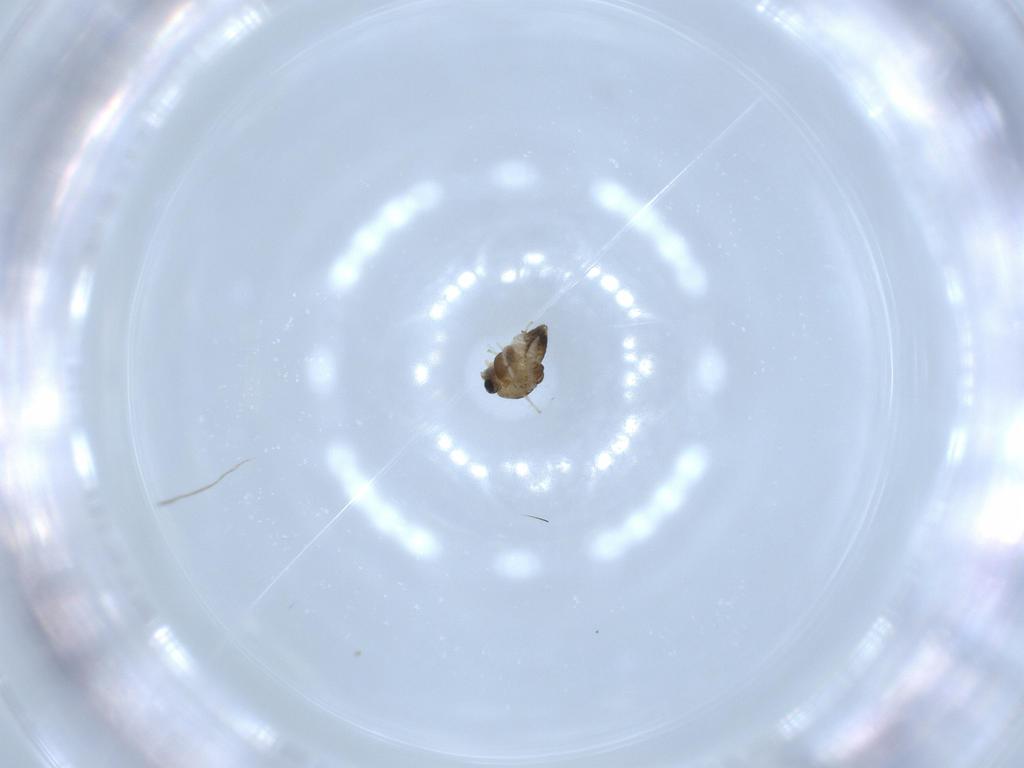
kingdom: Animalia
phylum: Arthropoda
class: Insecta
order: Diptera
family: Chironomidae
